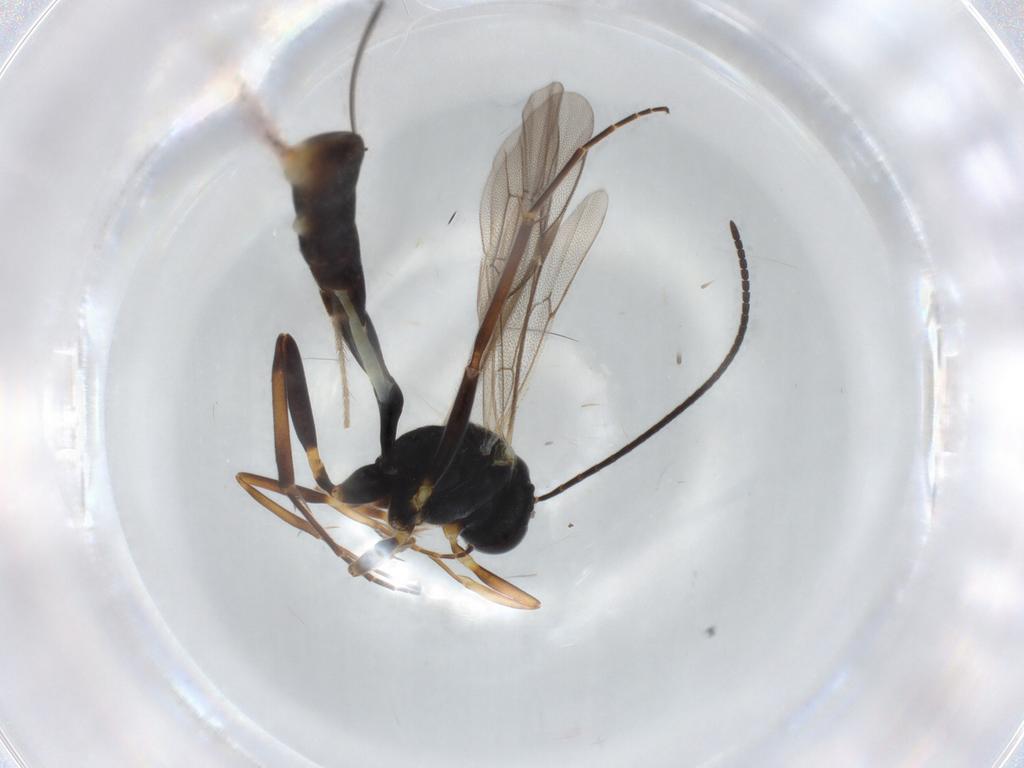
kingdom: Animalia
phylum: Arthropoda
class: Insecta
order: Hymenoptera
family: Ichneumonidae
